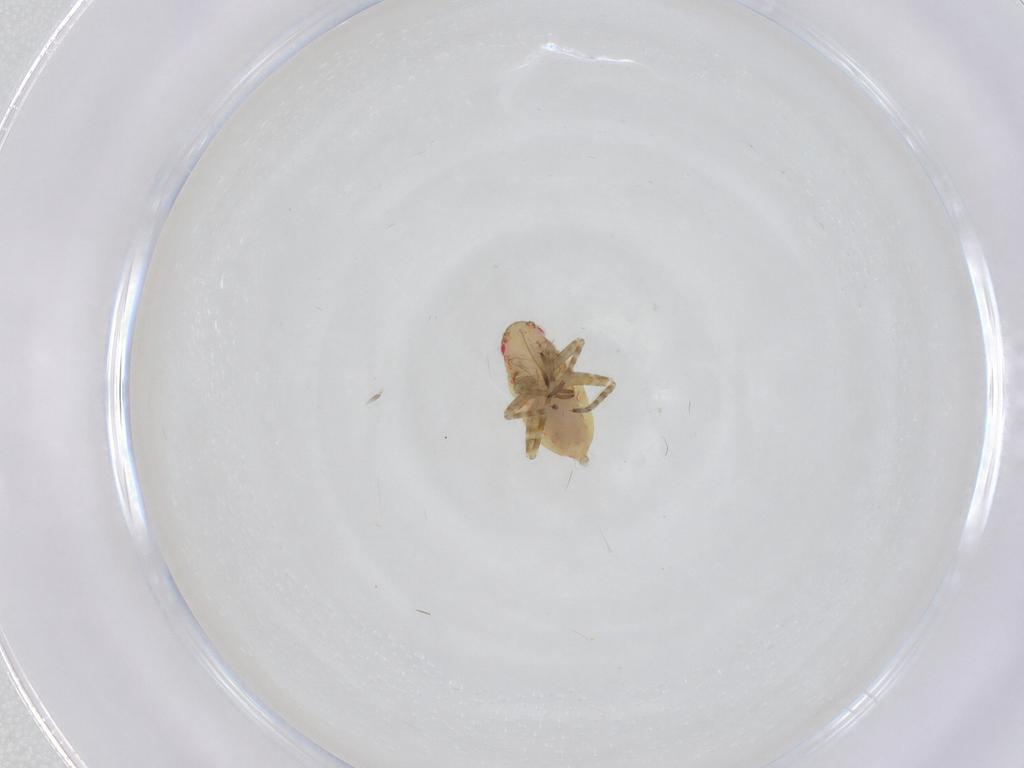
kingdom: Animalia
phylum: Arthropoda
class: Insecta
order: Hemiptera
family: Miridae
